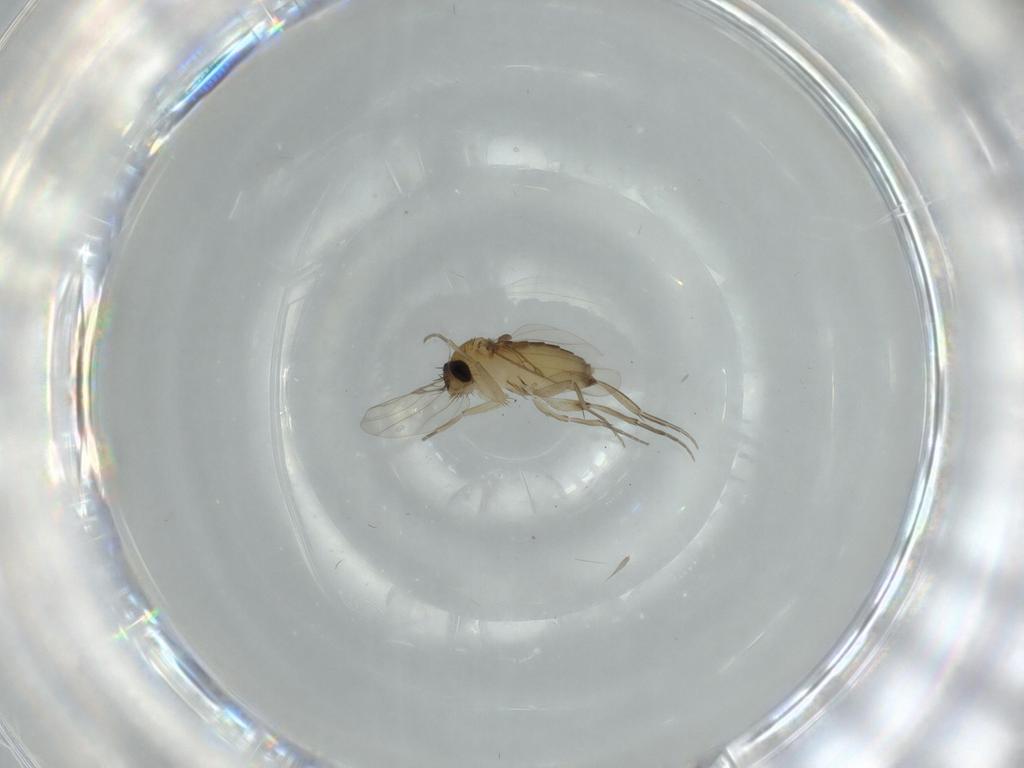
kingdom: Animalia
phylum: Arthropoda
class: Insecta
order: Diptera
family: Phoridae
